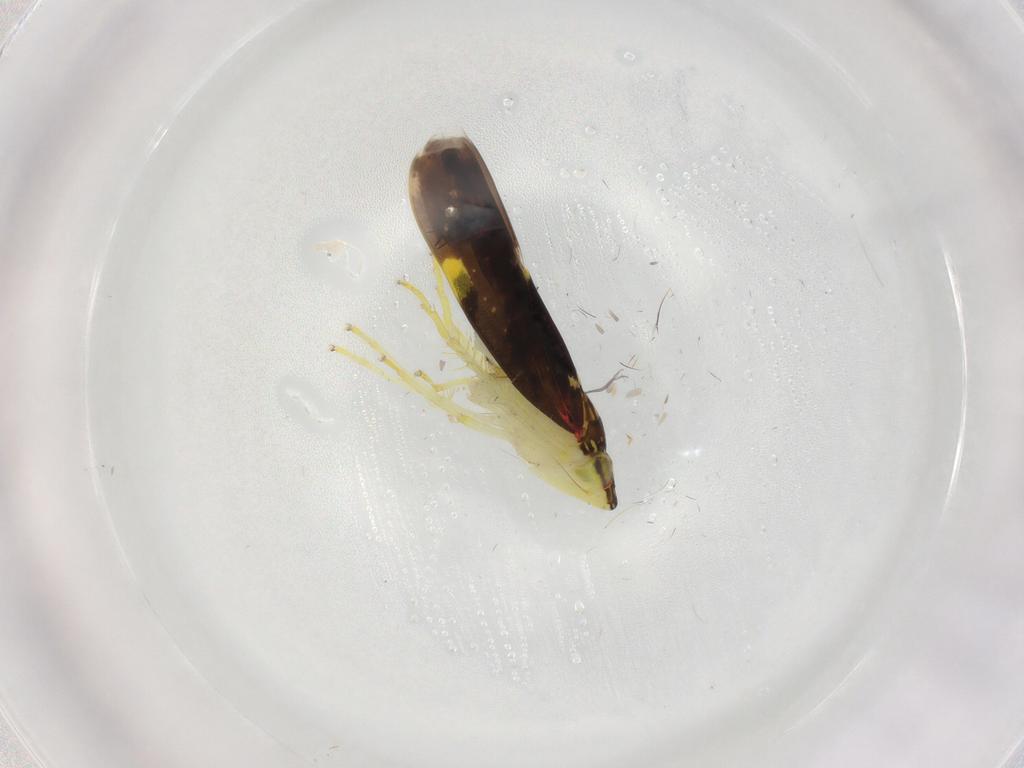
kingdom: Animalia
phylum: Arthropoda
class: Insecta
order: Hemiptera
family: Cicadellidae
